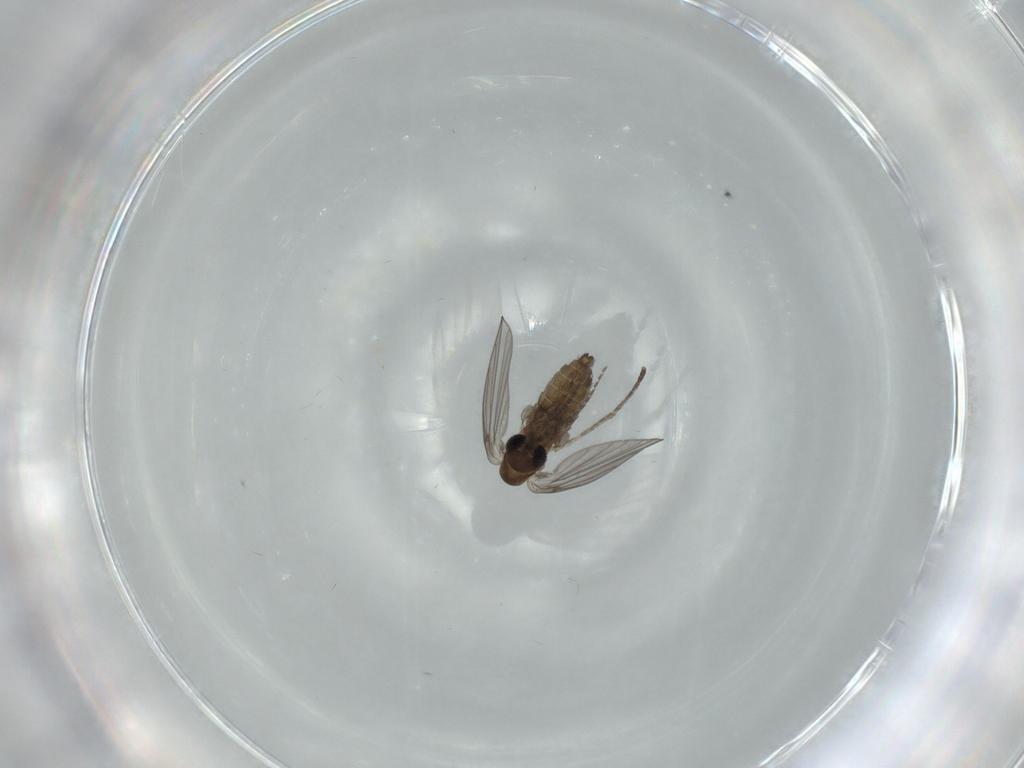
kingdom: Animalia
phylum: Arthropoda
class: Insecta
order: Diptera
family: Psychodidae
